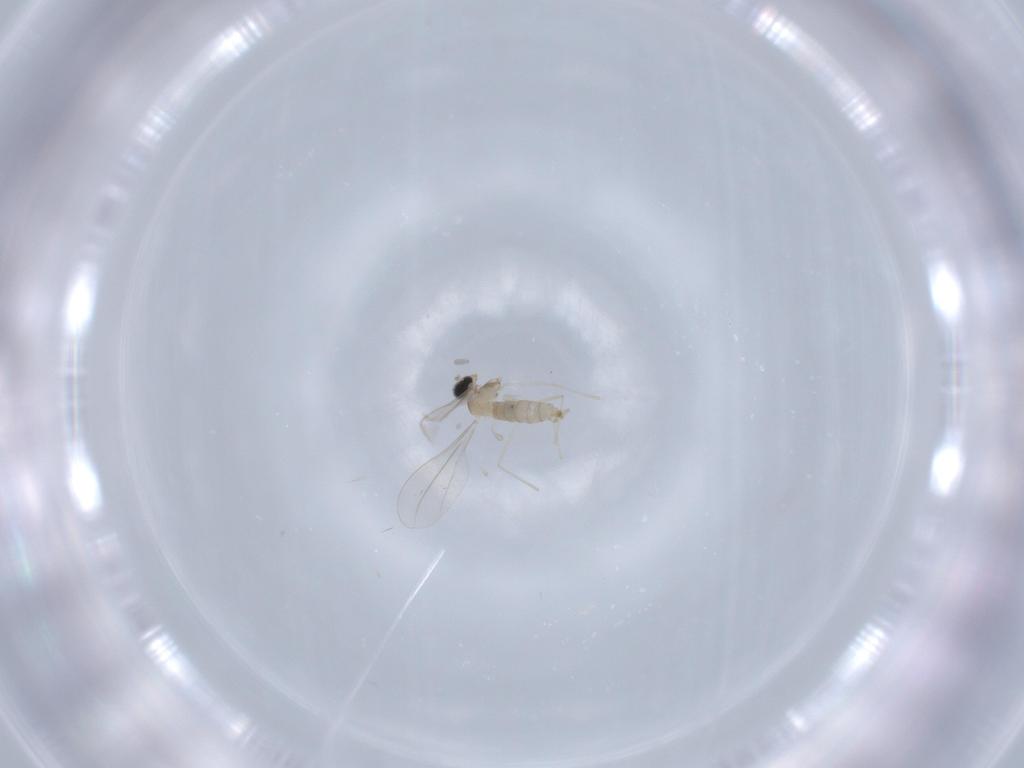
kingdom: Animalia
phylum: Arthropoda
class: Insecta
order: Diptera
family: Cecidomyiidae
